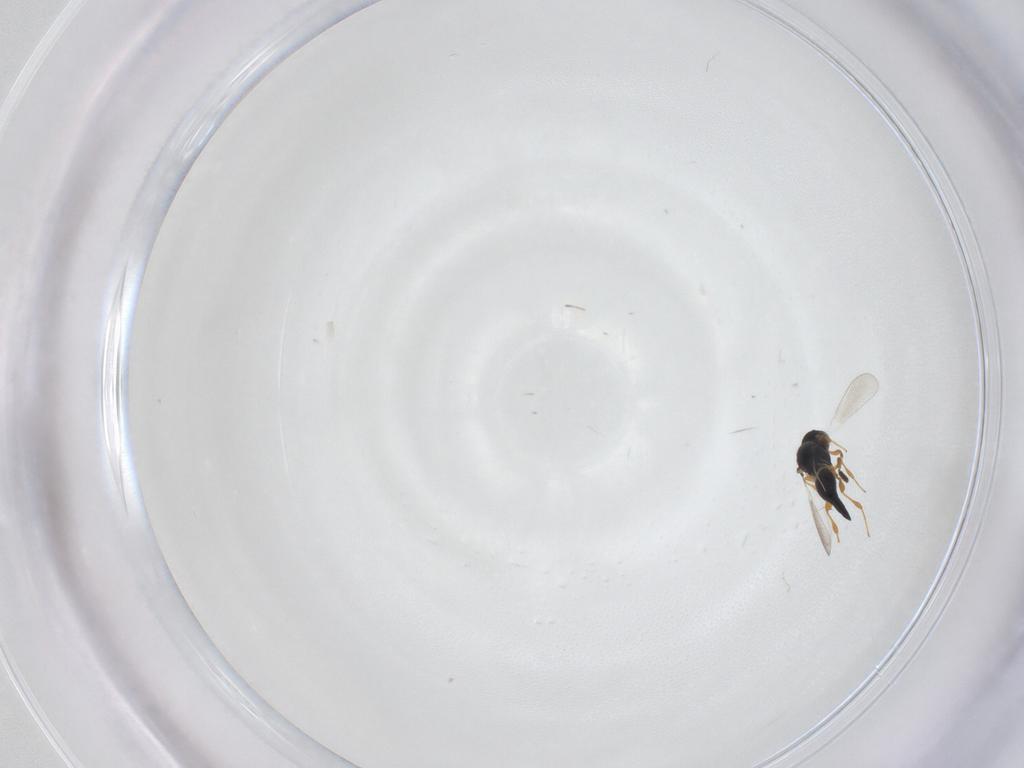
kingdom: Animalia
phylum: Arthropoda
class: Insecta
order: Hymenoptera
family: Platygastridae
